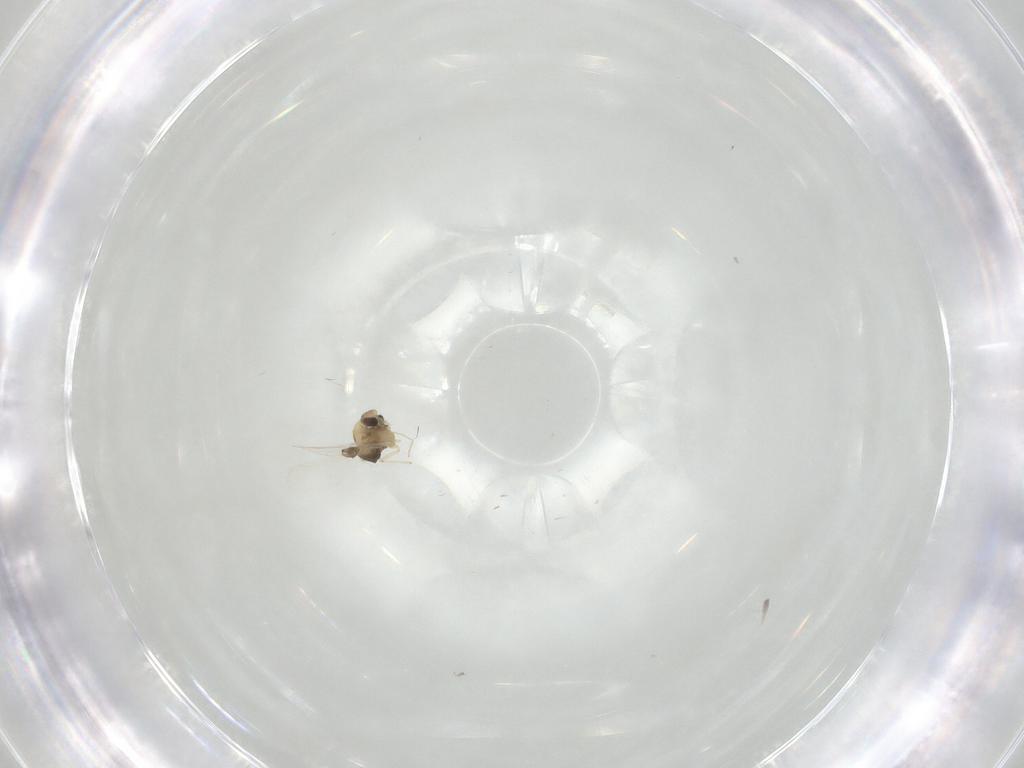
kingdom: Animalia
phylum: Arthropoda
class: Insecta
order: Diptera
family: Chironomidae
